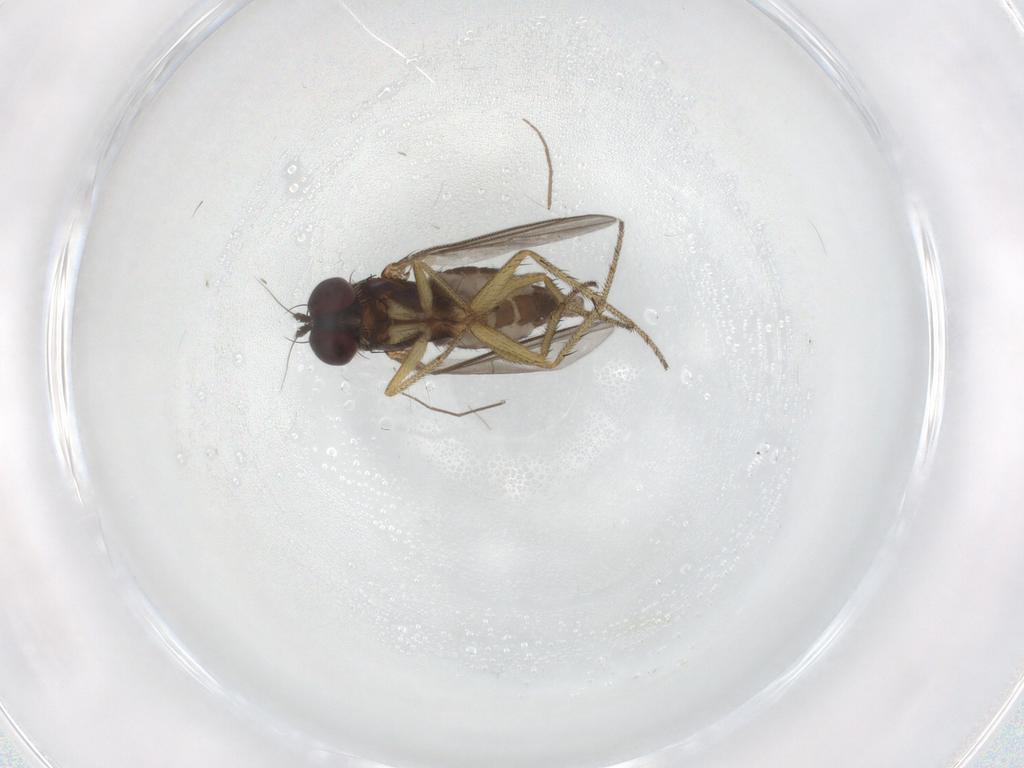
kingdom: Animalia
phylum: Arthropoda
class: Insecta
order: Diptera
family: Dolichopodidae
